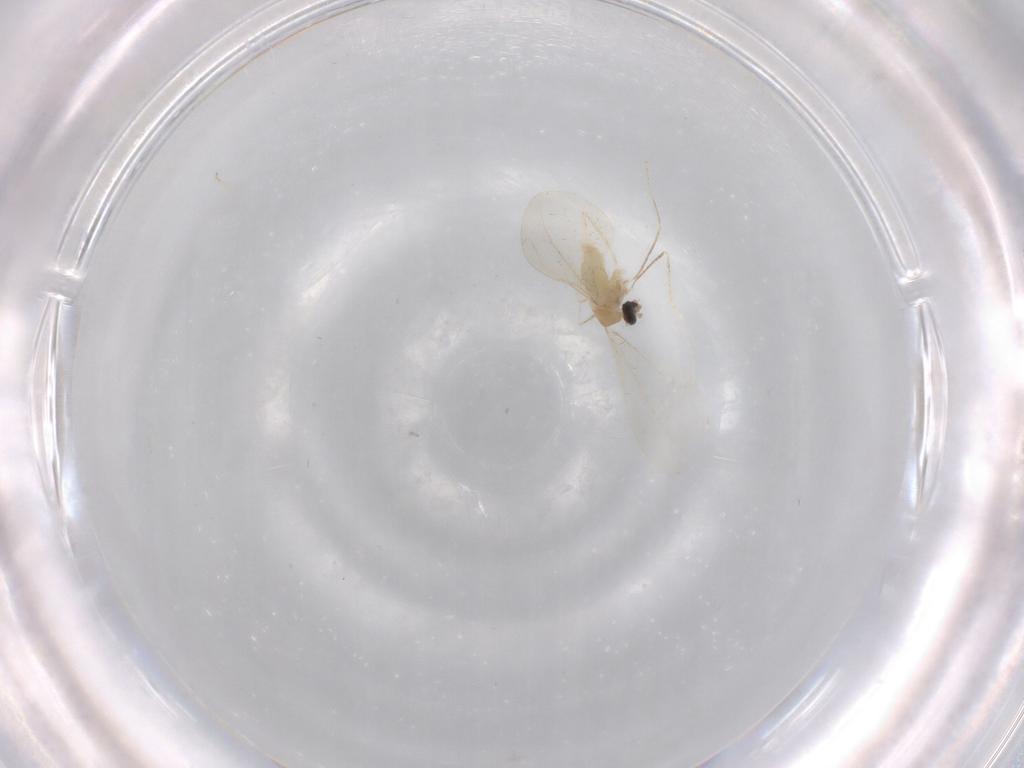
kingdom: Animalia
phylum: Arthropoda
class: Insecta
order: Diptera
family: Cecidomyiidae
